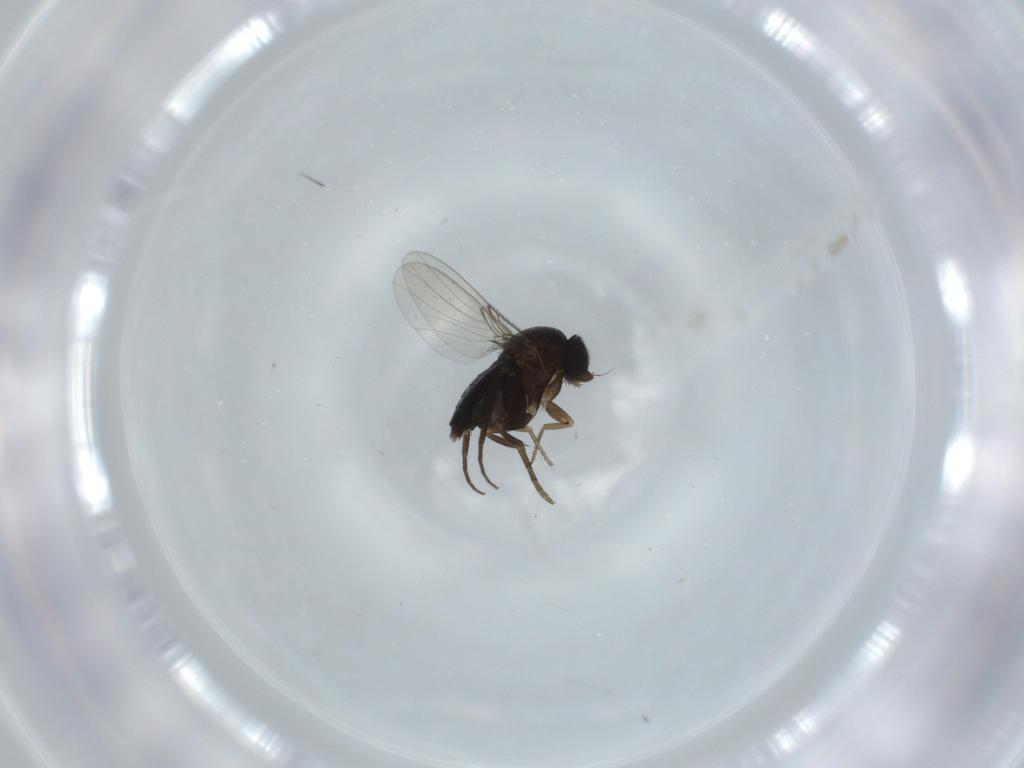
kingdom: Animalia
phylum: Arthropoda
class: Insecta
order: Diptera
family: Phoridae
